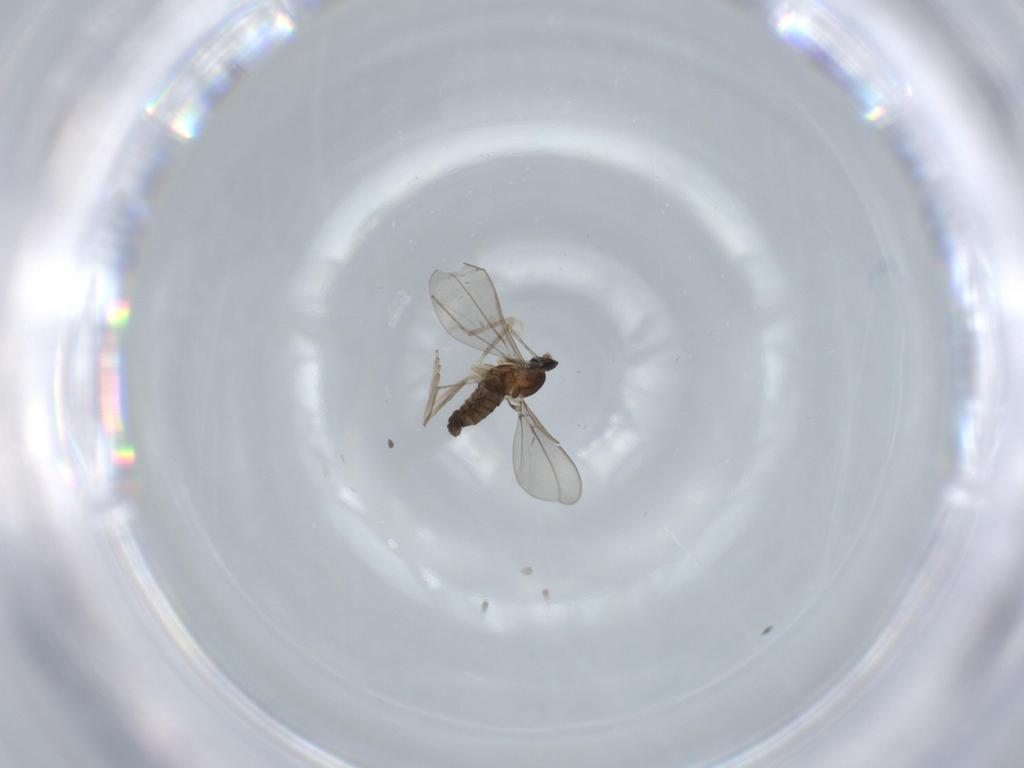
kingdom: Animalia
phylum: Arthropoda
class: Insecta
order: Diptera
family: Cecidomyiidae
